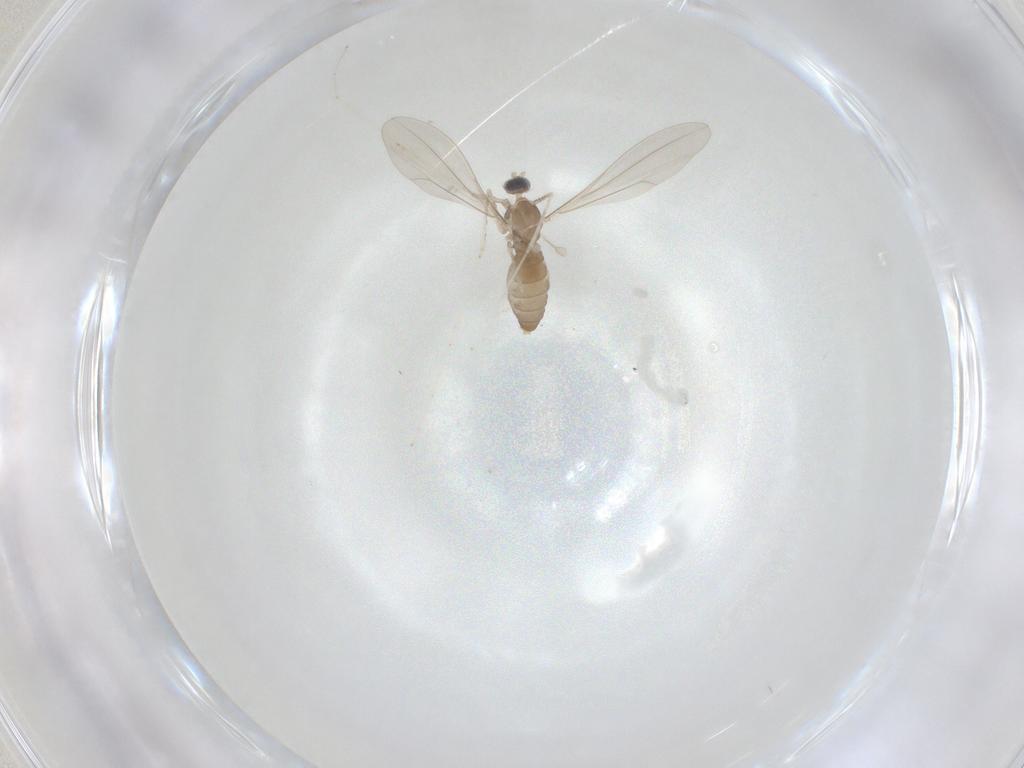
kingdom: Animalia
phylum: Arthropoda
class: Insecta
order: Diptera
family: Cecidomyiidae
